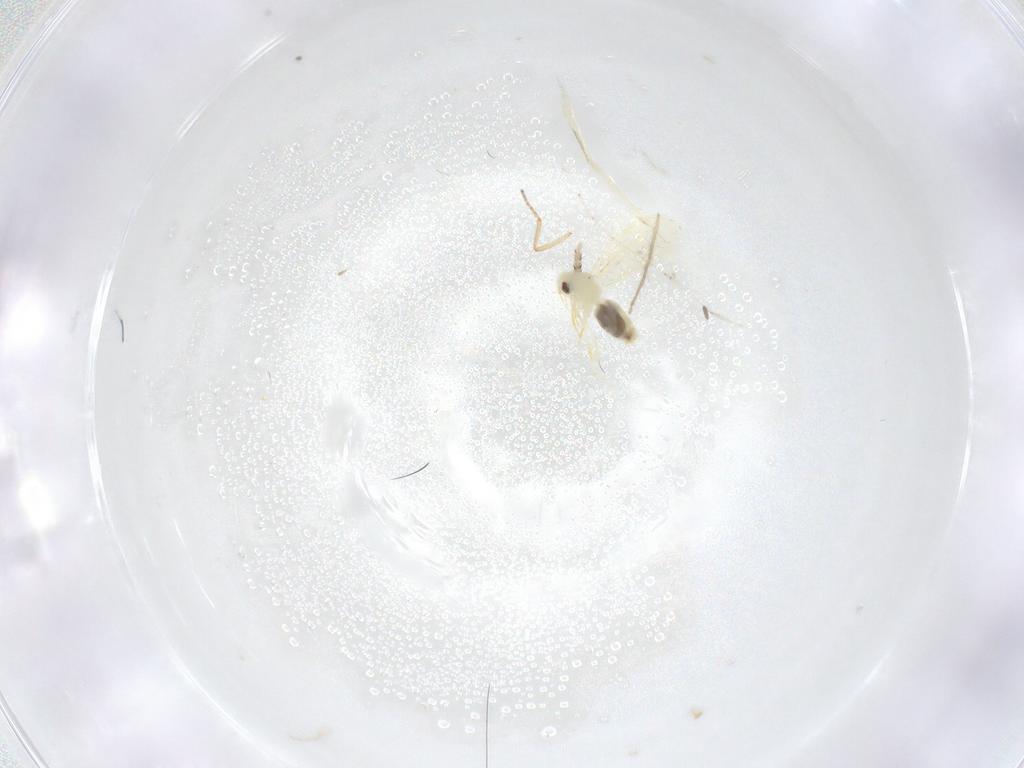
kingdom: Animalia
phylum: Arthropoda
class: Insecta
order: Hemiptera
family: Aleyrodidae
